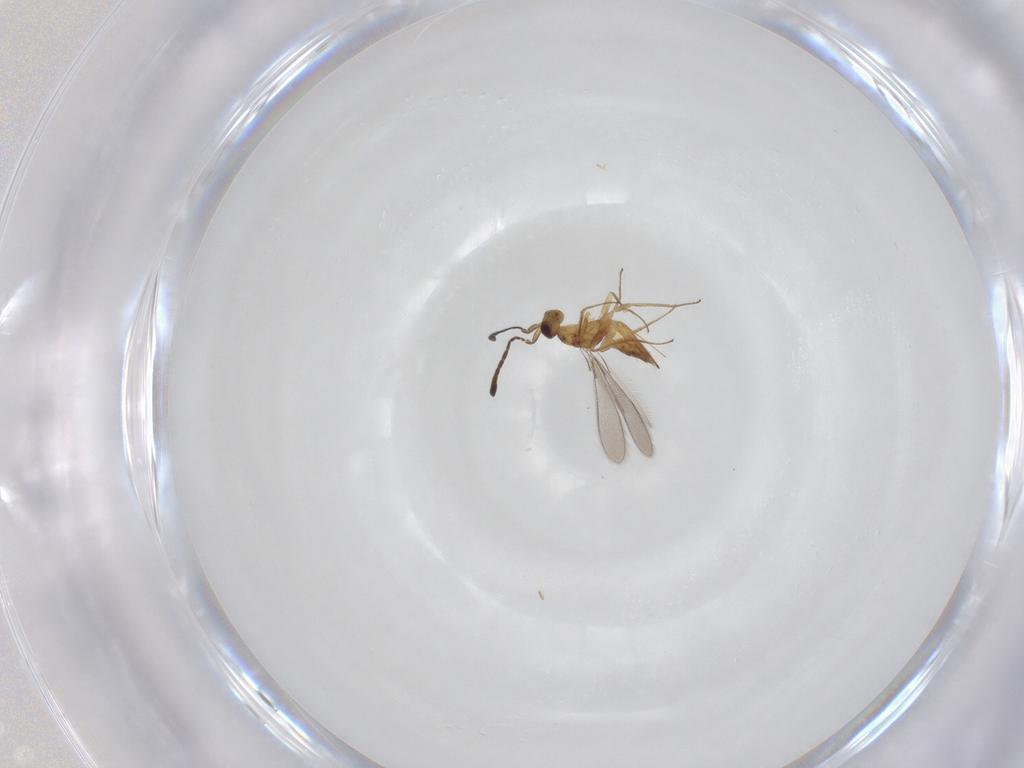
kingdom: Animalia
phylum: Arthropoda
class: Insecta
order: Hymenoptera
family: Mymaridae
